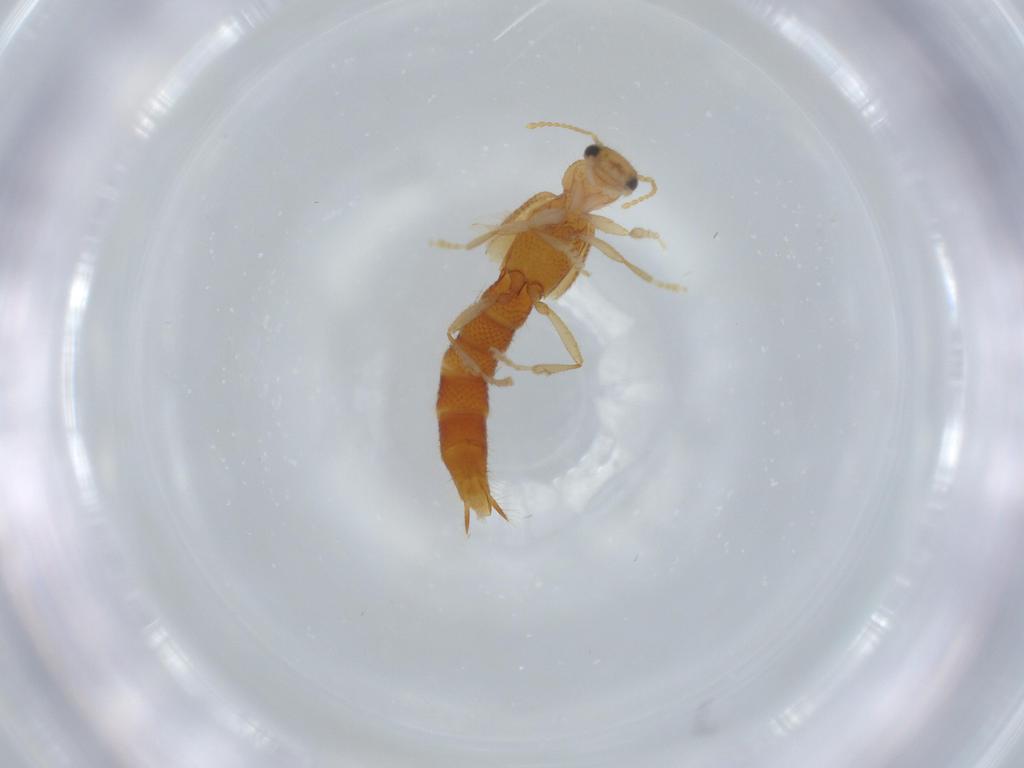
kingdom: Animalia
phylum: Arthropoda
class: Insecta
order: Coleoptera
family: Staphylinidae
